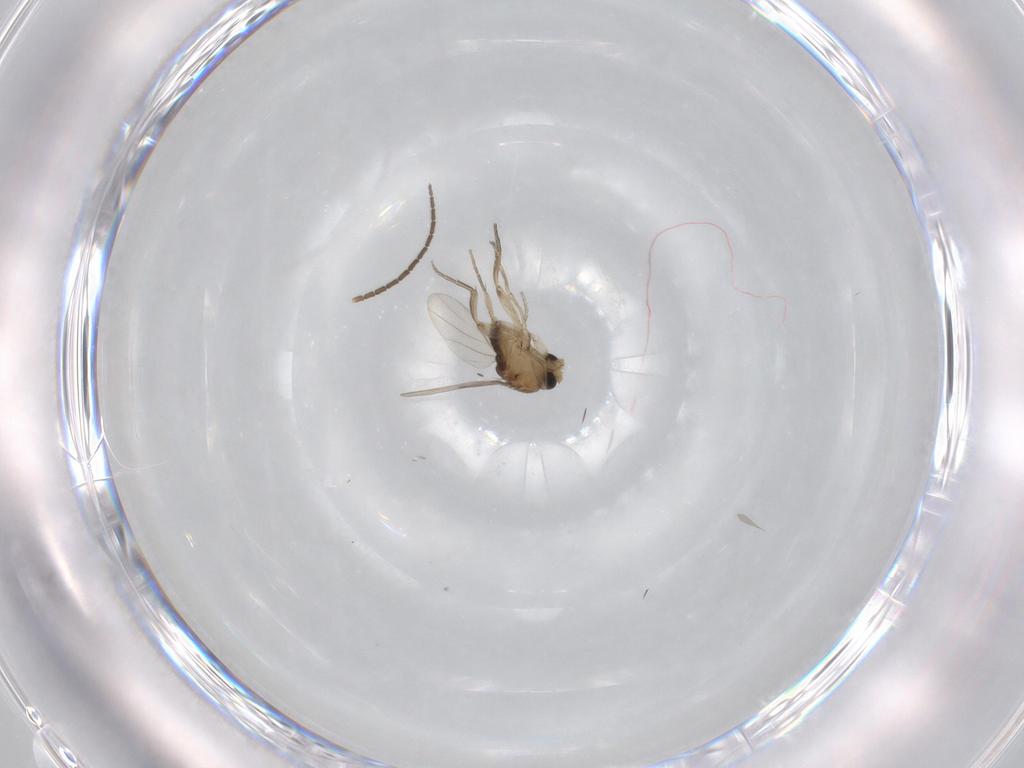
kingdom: Animalia
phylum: Arthropoda
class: Insecta
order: Diptera
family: Sciaridae
